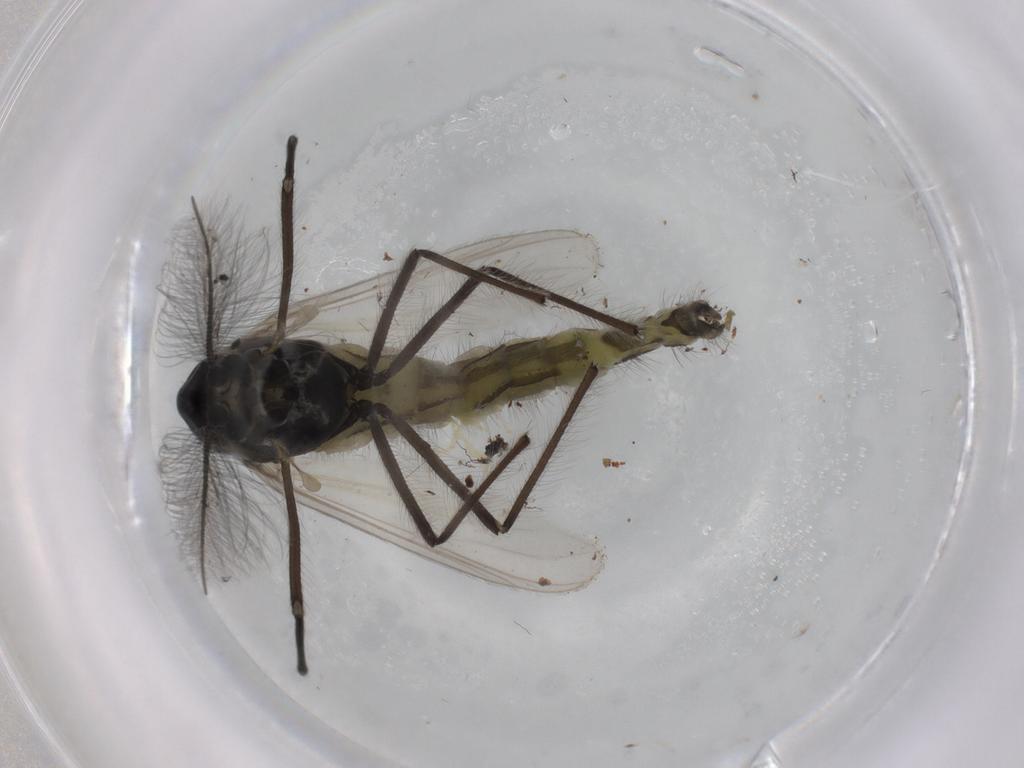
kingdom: Animalia
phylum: Arthropoda
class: Insecta
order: Diptera
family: Chironomidae
